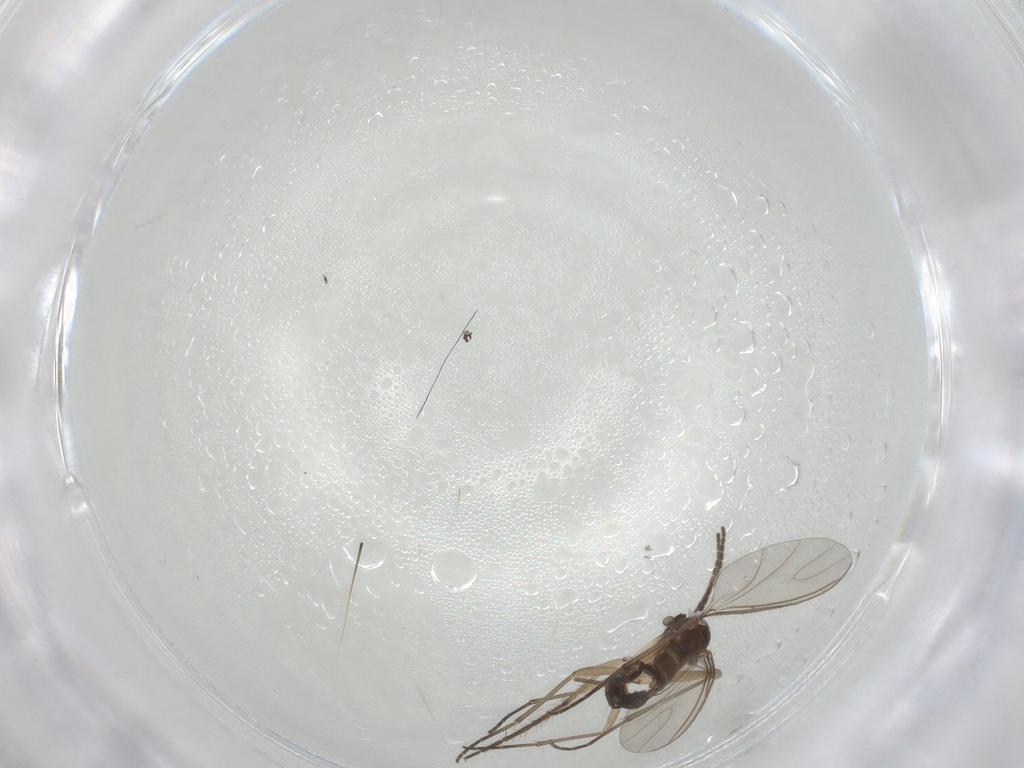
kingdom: Animalia
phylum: Arthropoda
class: Insecta
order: Diptera
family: Sciaridae
